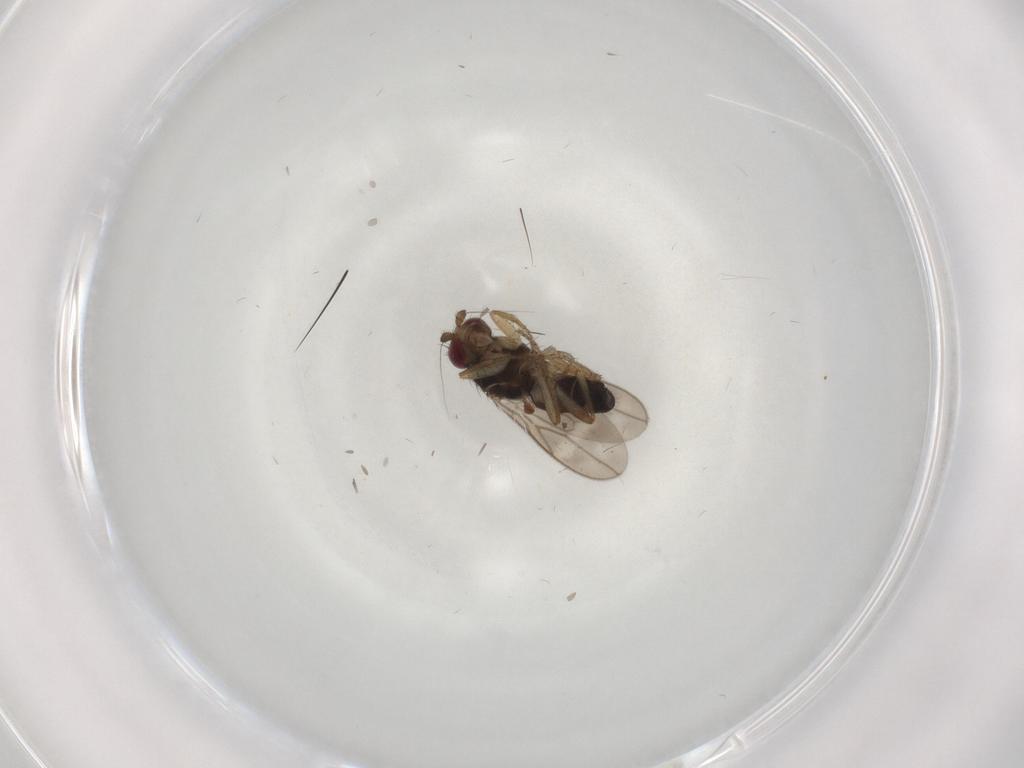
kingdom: Animalia
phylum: Arthropoda
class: Insecta
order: Diptera
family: Sphaeroceridae
